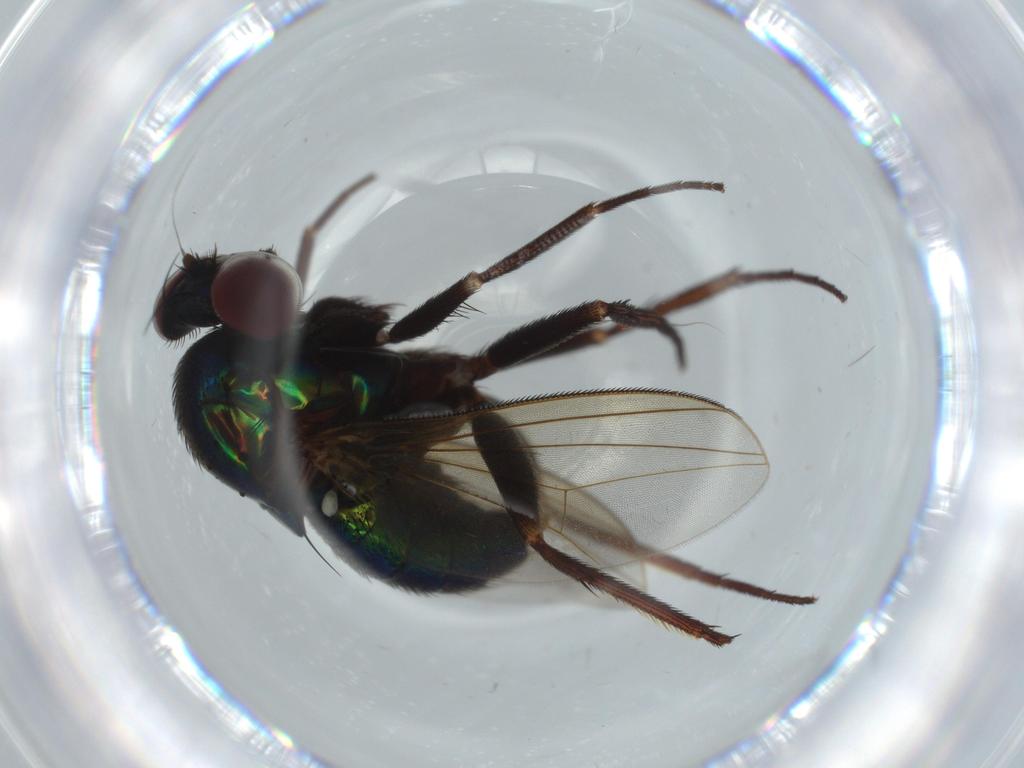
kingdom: Animalia
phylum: Arthropoda
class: Insecta
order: Diptera
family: Dolichopodidae
